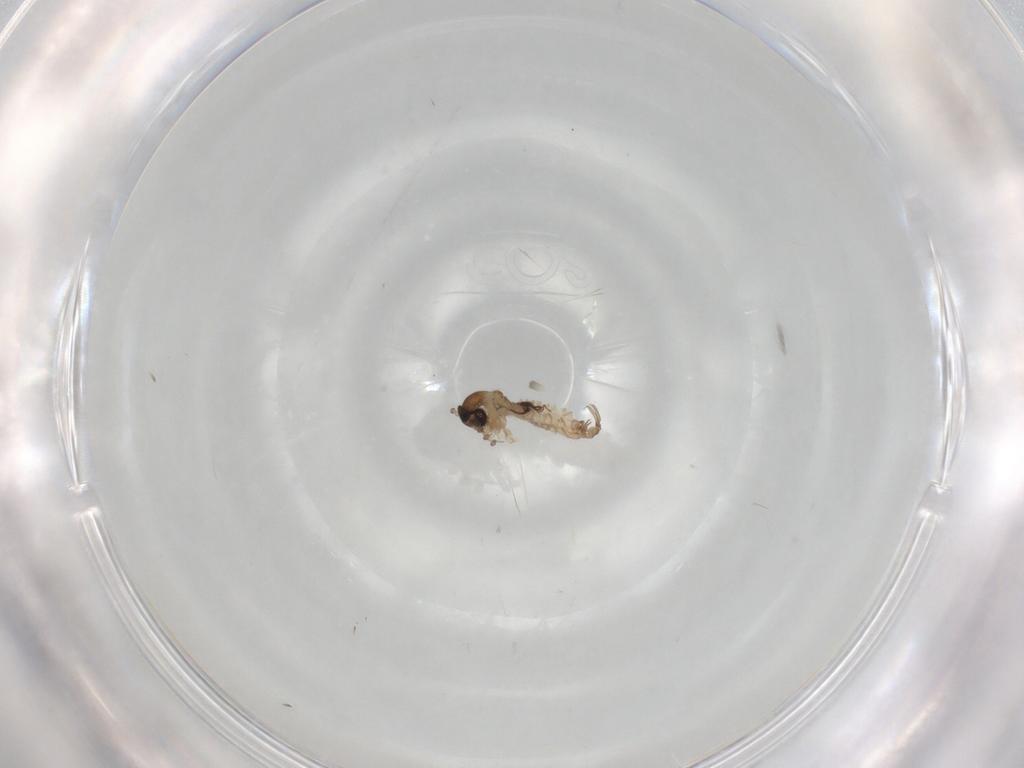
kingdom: Animalia
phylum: Arthropoda
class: Insecta
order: Diptera
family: Psychodidae
